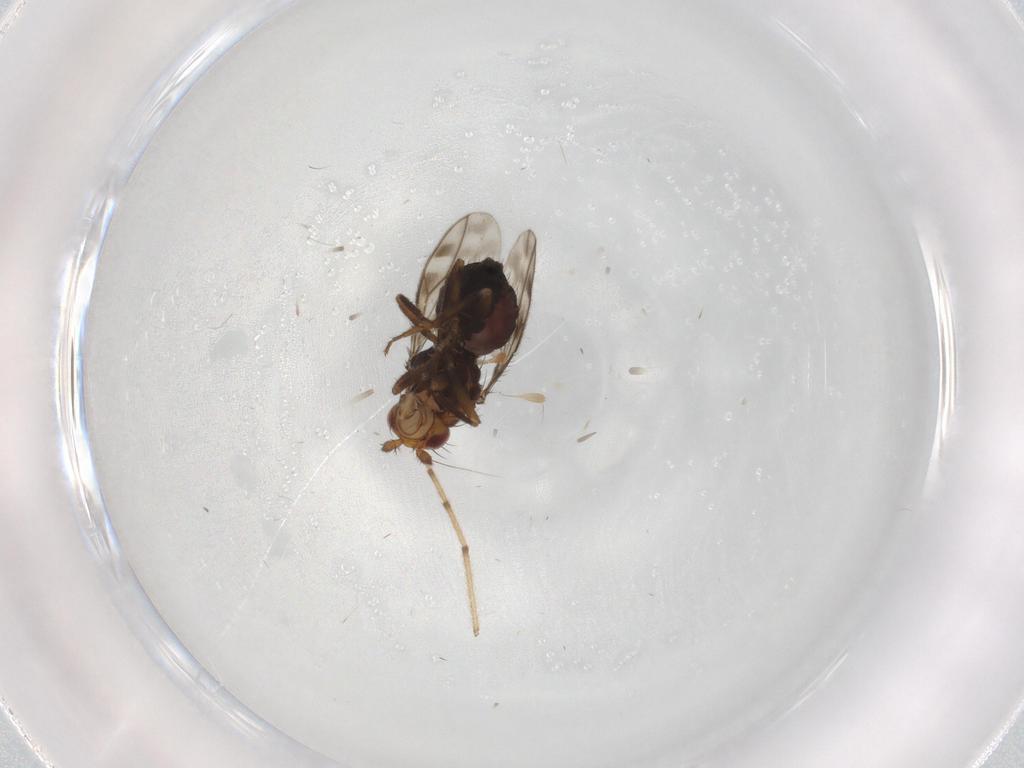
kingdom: Animalia
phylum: Arthropoda
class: Insecta
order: Diptera
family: Sphaeroceridae
